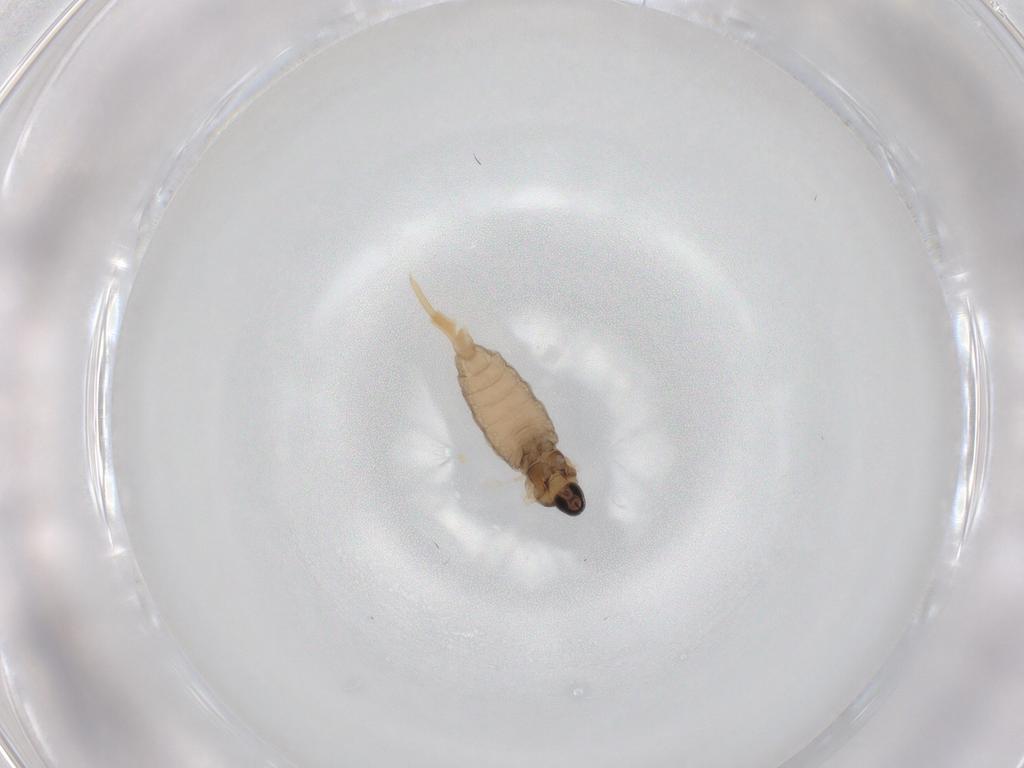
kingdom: Animalia
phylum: Arthropoda
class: Insecta
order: Diptera
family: Cecidomyiidae
